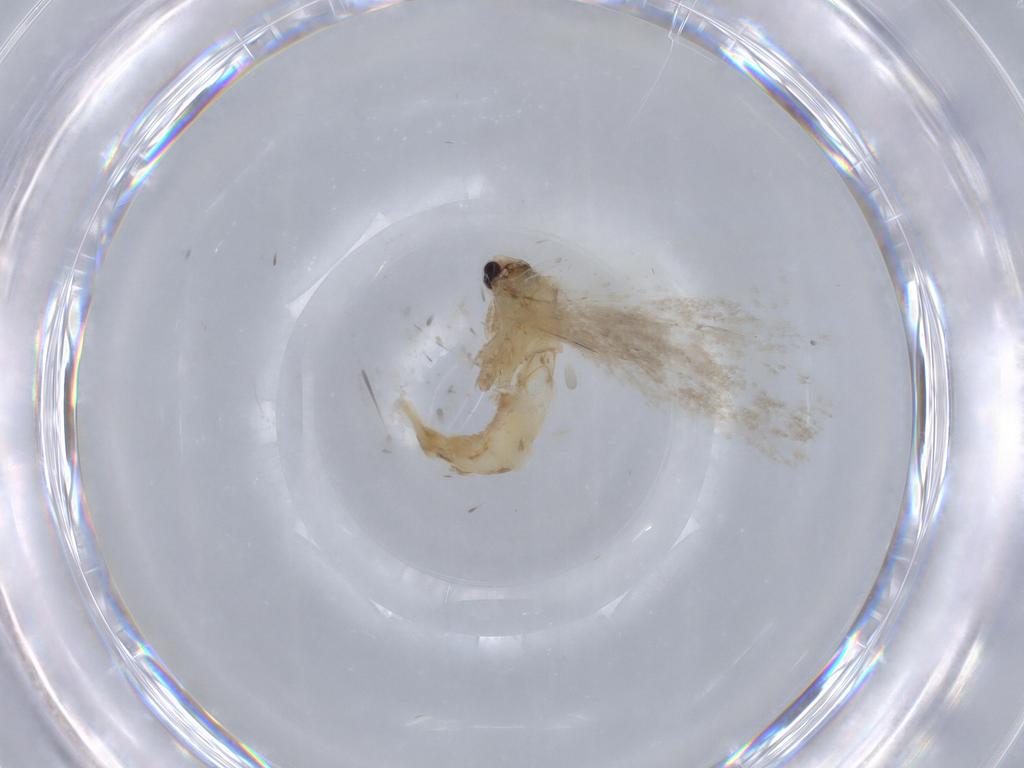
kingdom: Animalia
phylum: Arthropoda
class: Insecta
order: Lepidoptera
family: Tineidae
